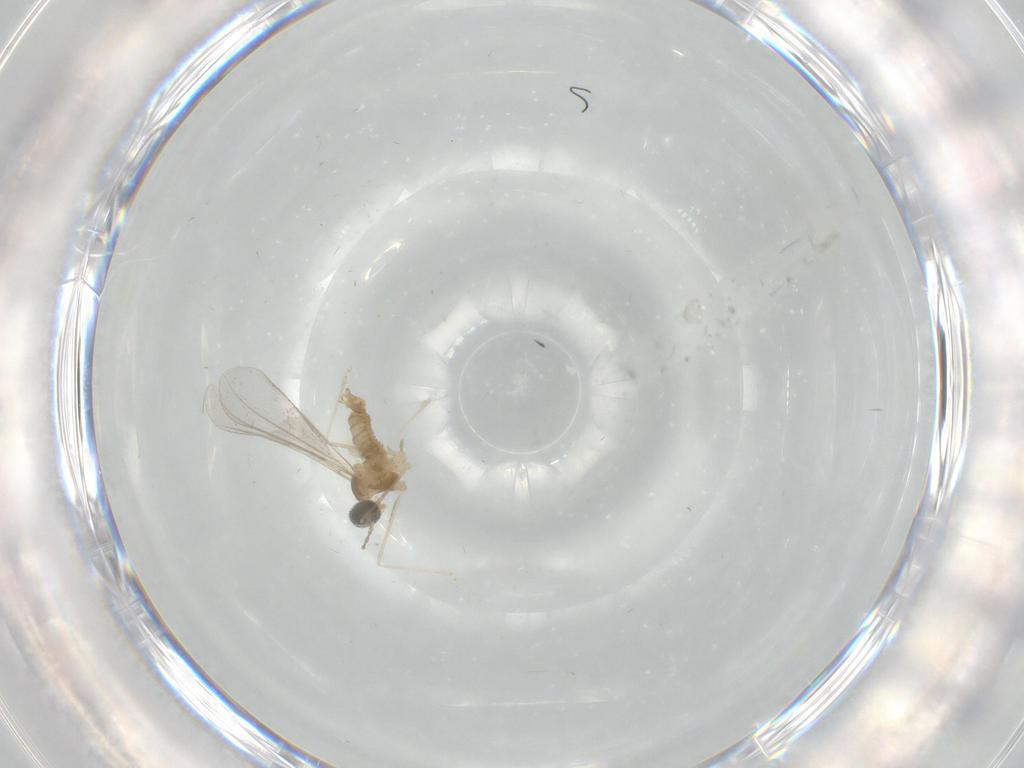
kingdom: Animalia
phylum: Arthropoda
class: Insecta
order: Diptera
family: Cecidomyiidae
